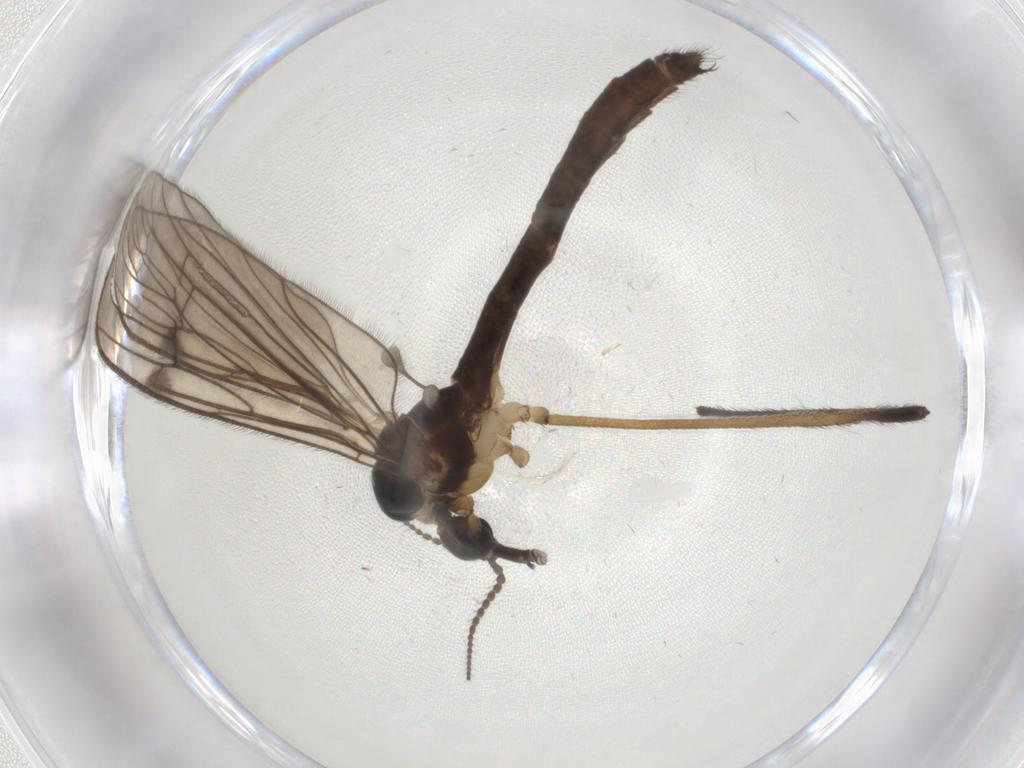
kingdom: Animalia
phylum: Arthropoda
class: Insecta
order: Diptera
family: Limoniidae
